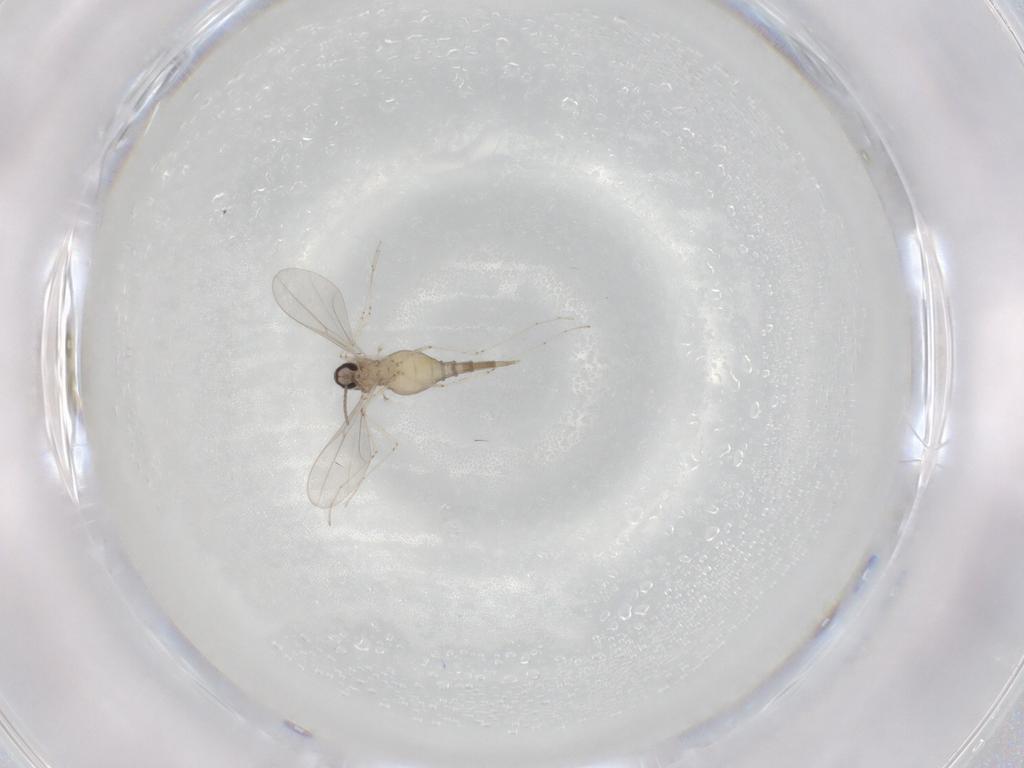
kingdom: Animalia
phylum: Arthropoda
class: Insecta
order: Diptera
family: Cecidomyiidae
